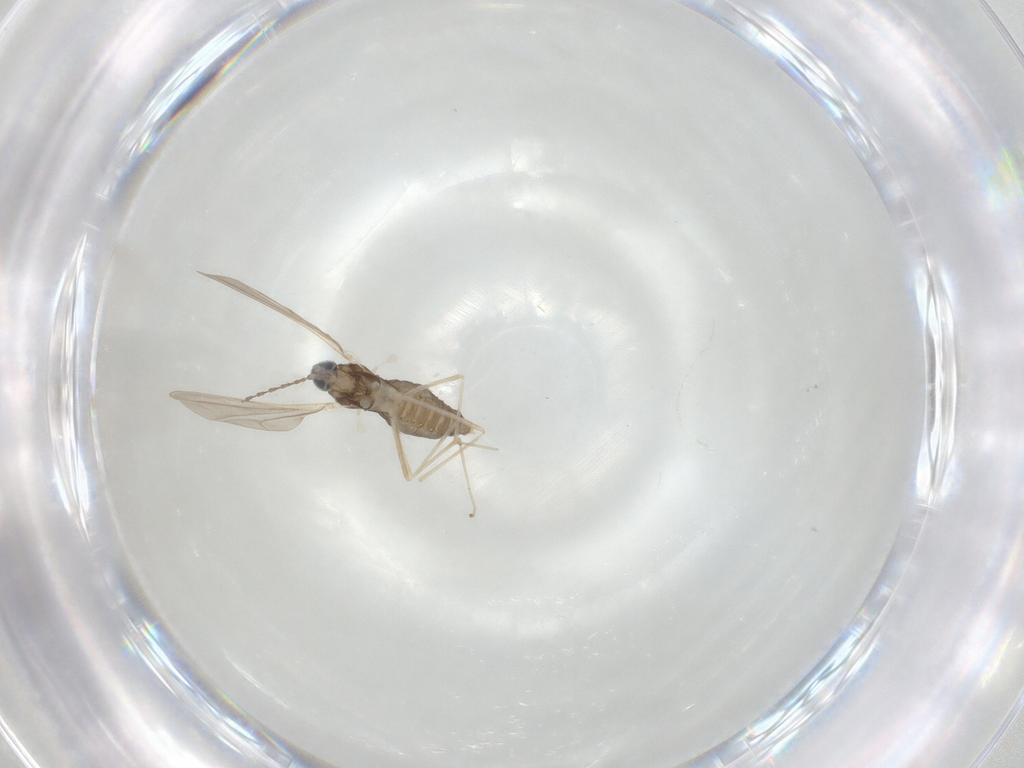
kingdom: Animalia
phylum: Arthropoda
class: Insecta
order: Diptera
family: Cecidomyiidae
